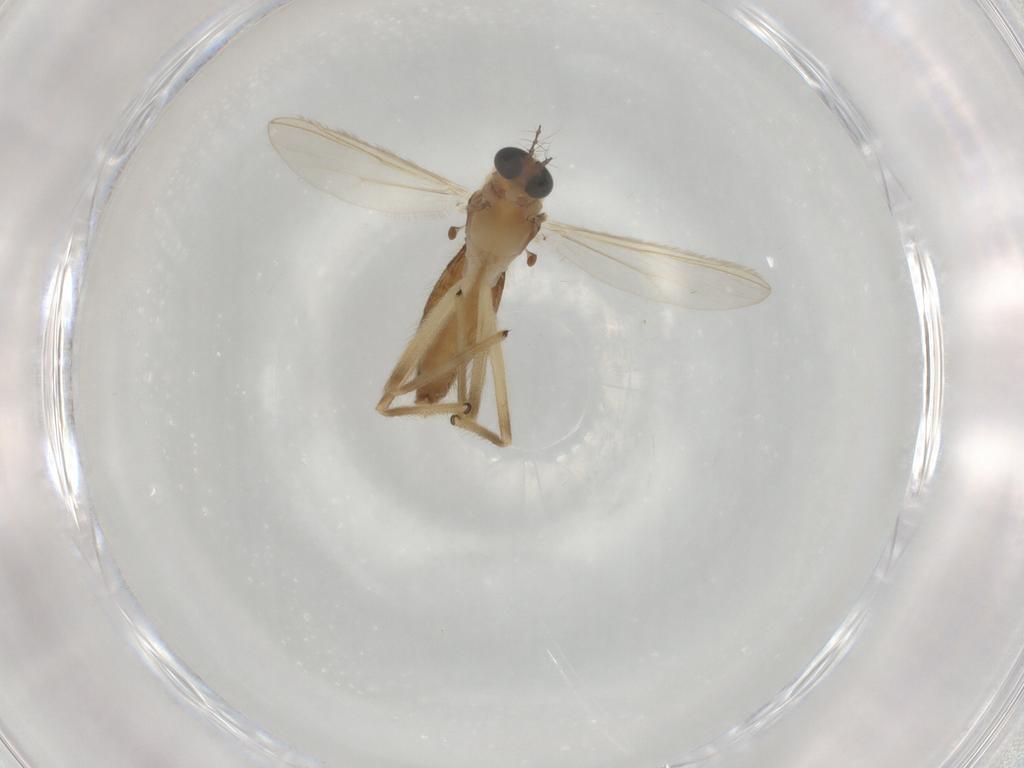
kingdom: Animalia
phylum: Arthropoda
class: Insecta
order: Diptera
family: Chironomidae
